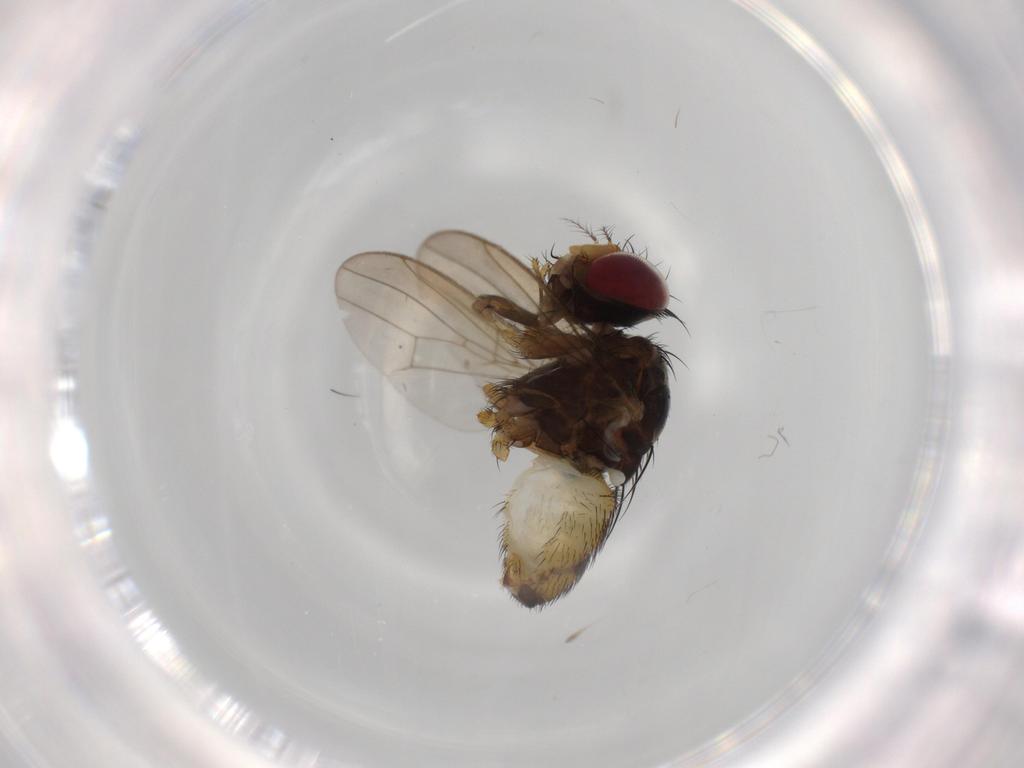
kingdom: Animalia
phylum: Arthropoda
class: Insecta
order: Diptera
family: Anthomyiidae
